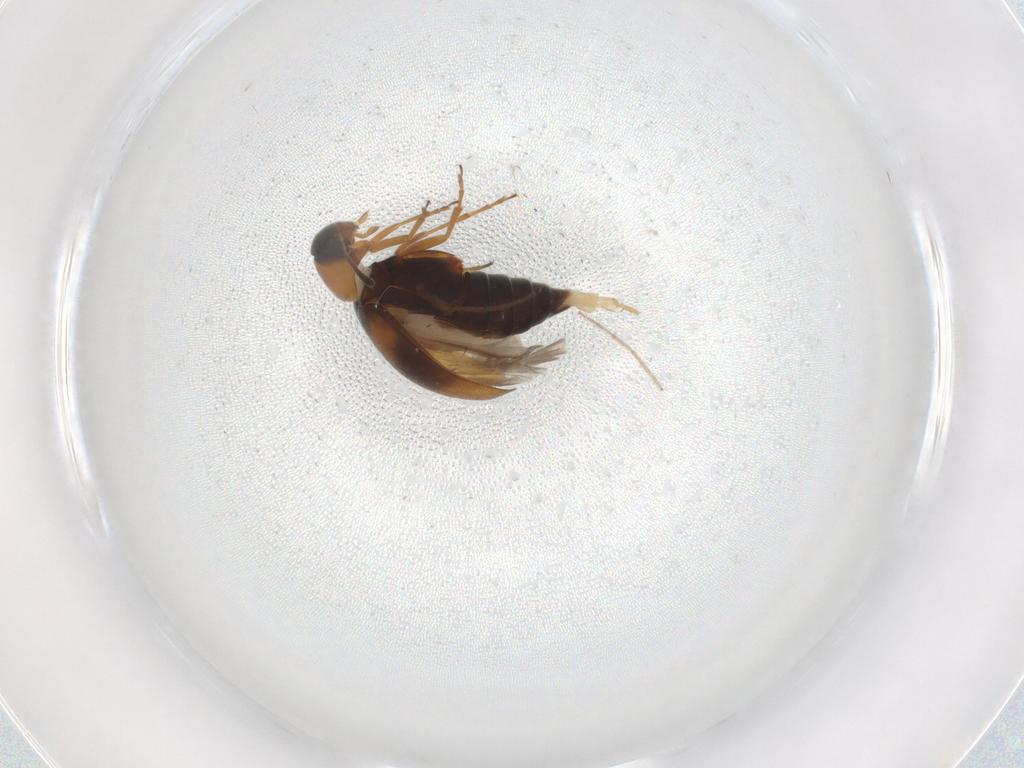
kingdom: Animalia
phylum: Arthropoda
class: Insecta
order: Coleoptera
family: Scraptiidae
